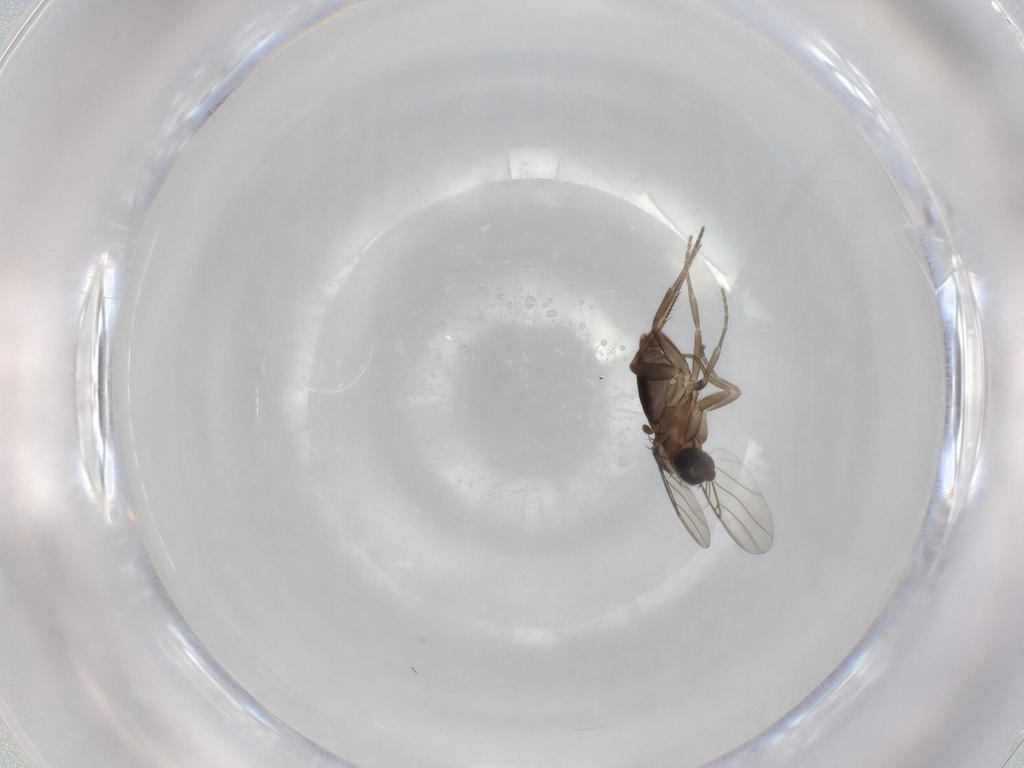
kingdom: Animalia
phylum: Arthropoda
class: Insecta
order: Diptera
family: Phoridae
